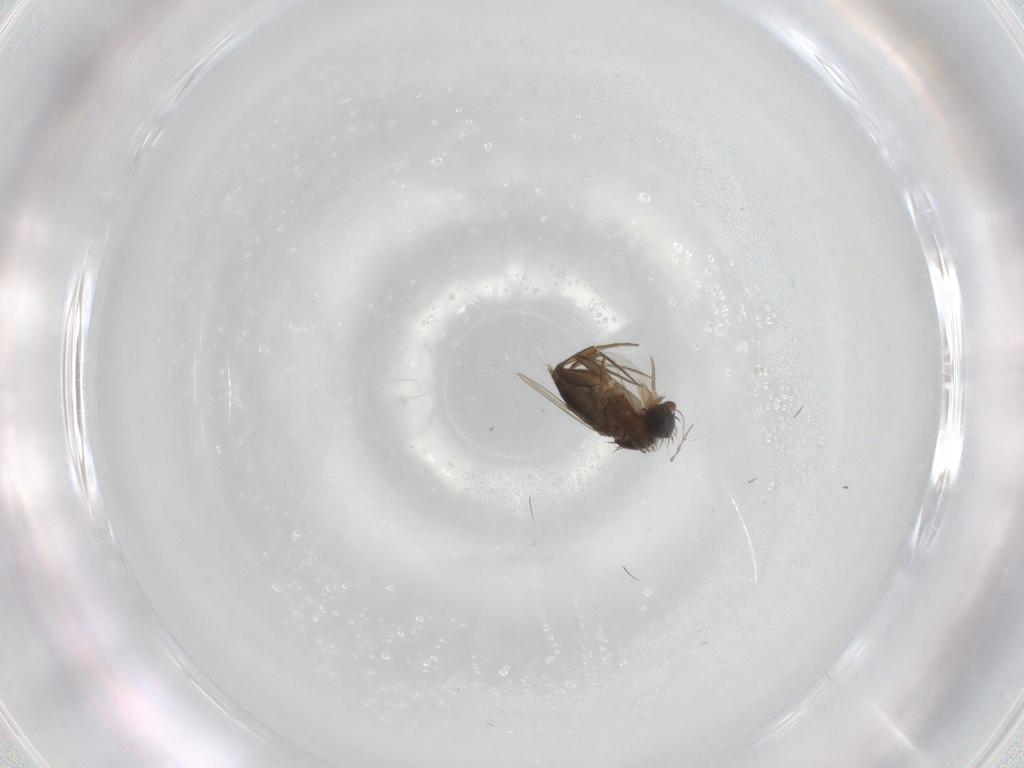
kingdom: Animalia
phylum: Arthropoda
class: Insecta
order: Diptera
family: Phoridae
